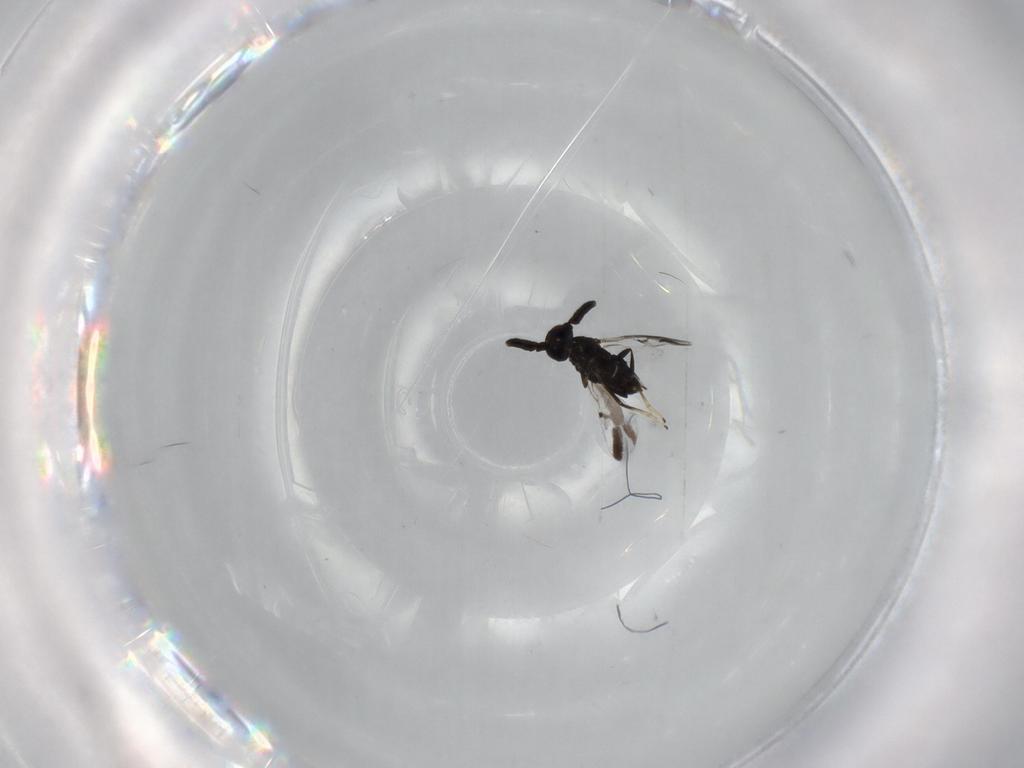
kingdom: Animalia
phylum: Arthropoda
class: Insecta
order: Hymenoptera
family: Encyrtidae
